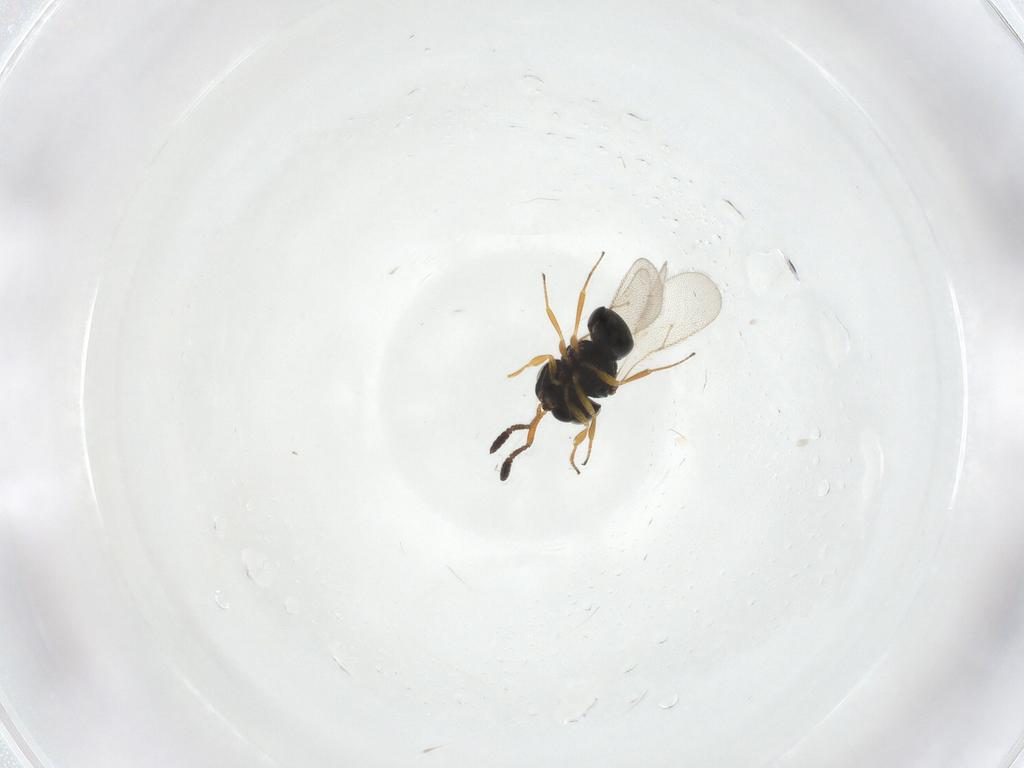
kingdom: Animalia
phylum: Arthropoda
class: Insecta
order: Hymenoptera
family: Scelionidae
